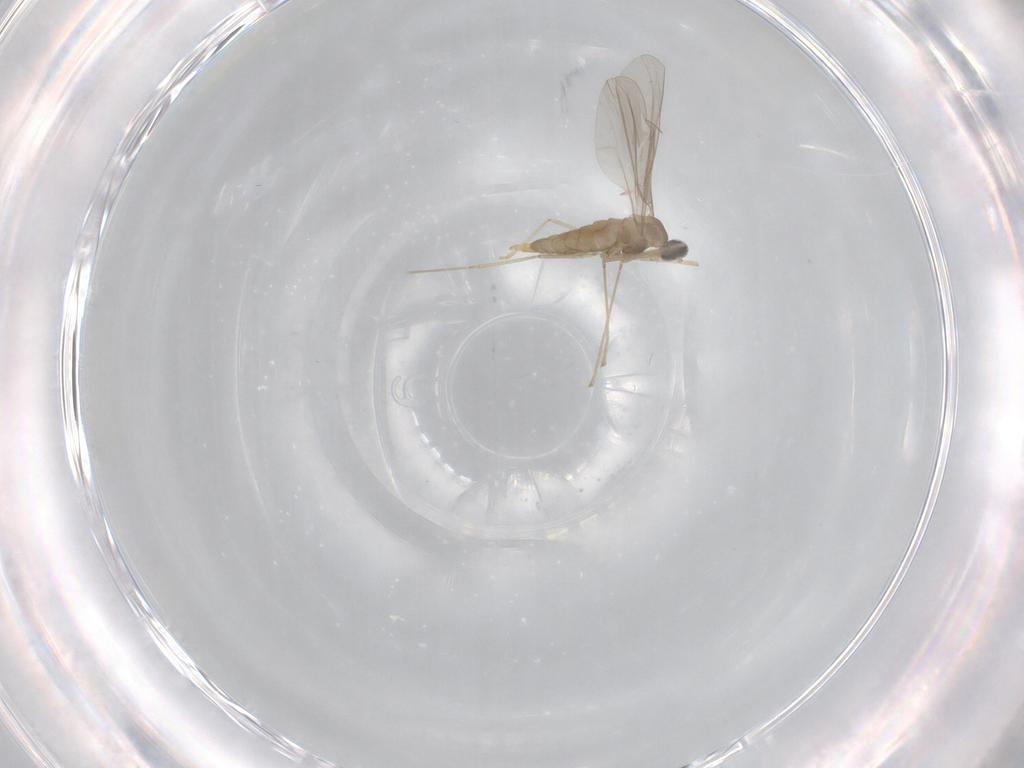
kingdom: Animalia
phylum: Arthropoda
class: Insecta
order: Diptera
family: Cecidomyiidae
